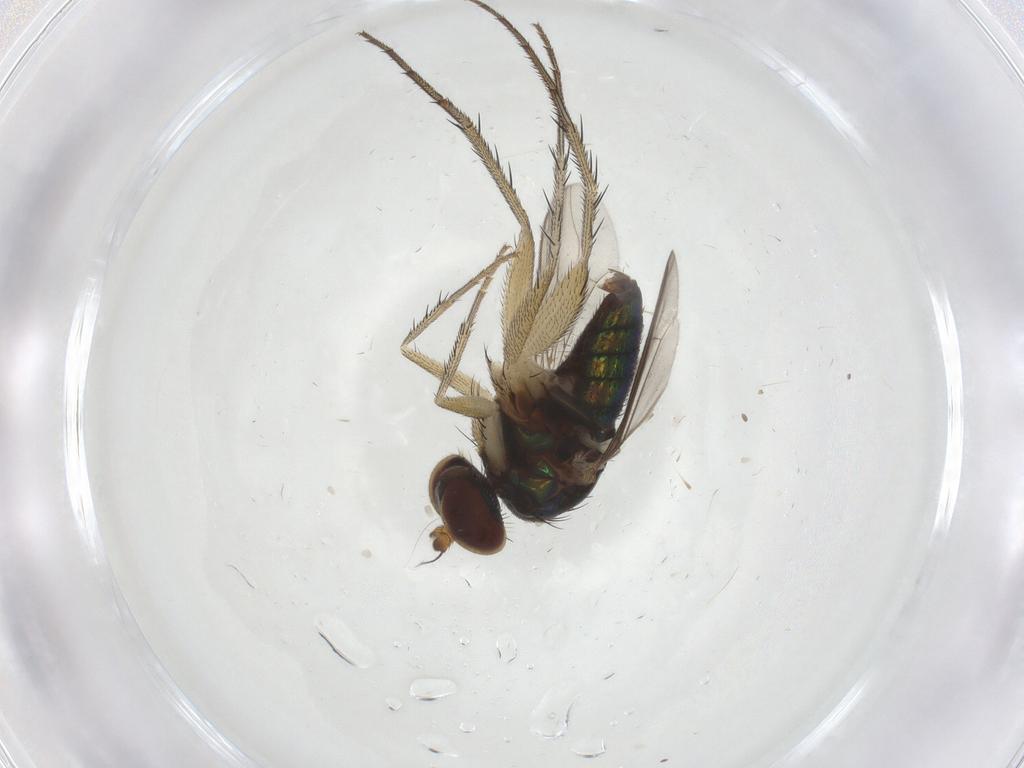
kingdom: Animalia
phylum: Arthropoda
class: Insecta
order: Diptera
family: Dolichopodidae
